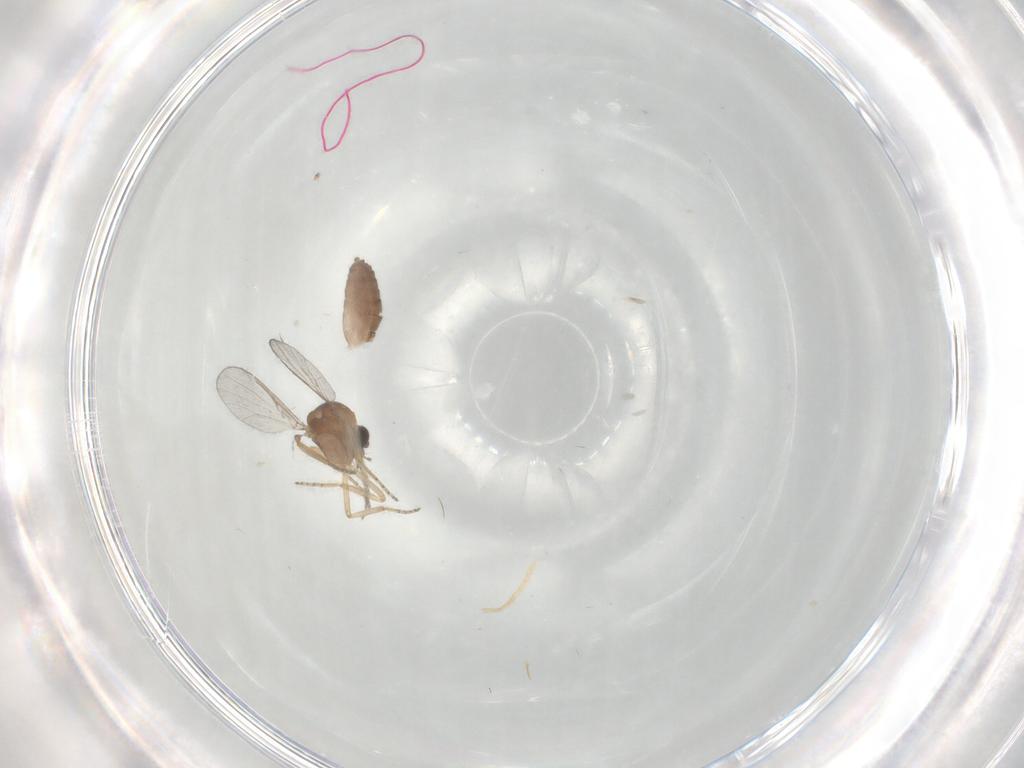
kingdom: Animalia
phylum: Arthropoda
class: Insecta
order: Diptera
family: Ceratopogonidae
